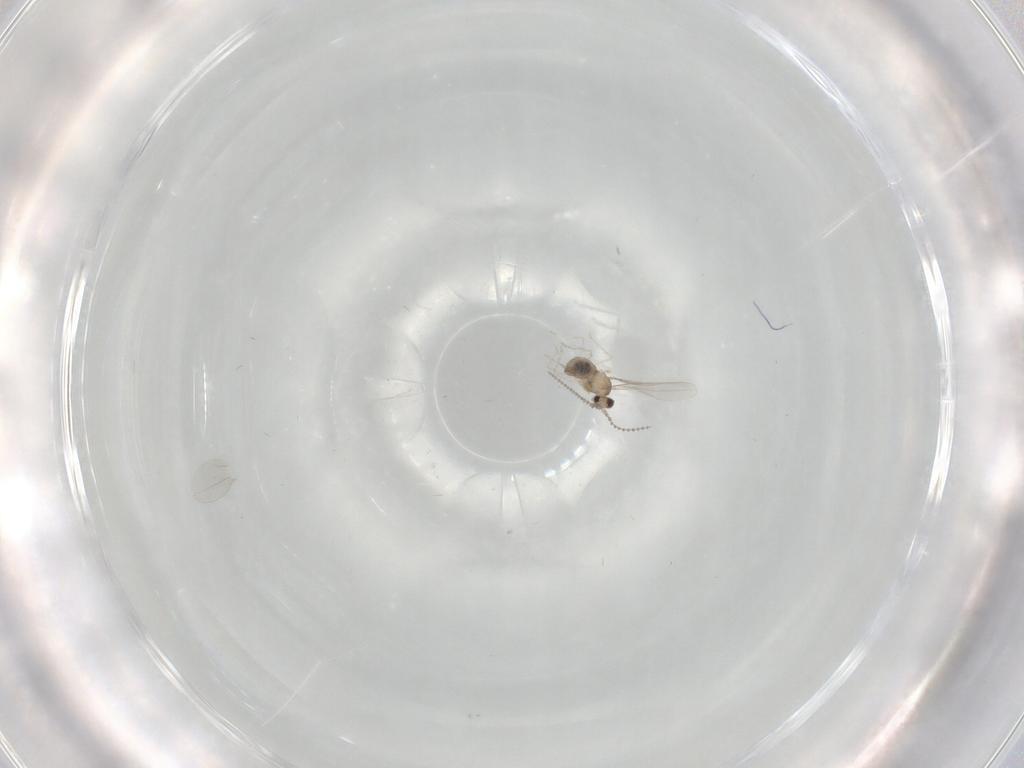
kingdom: Animalia
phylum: Arthropoda
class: Insecta
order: Diptera
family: Cecidomyiidae
